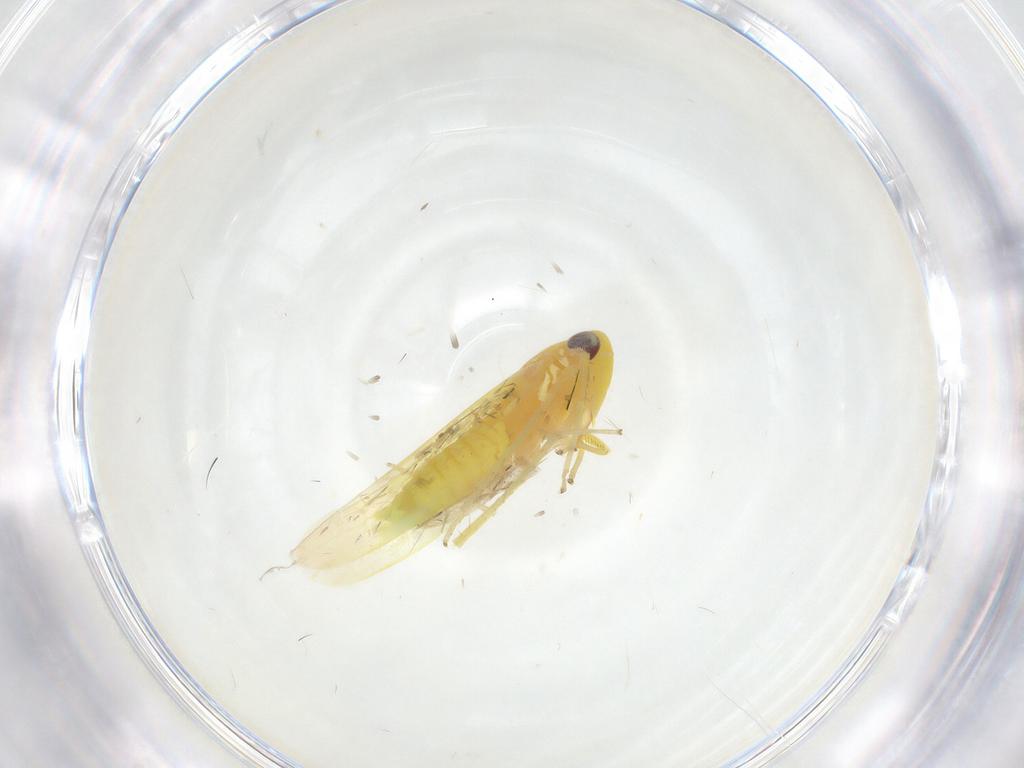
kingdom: Animalia
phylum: Arthropoda
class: Insecta
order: Hemiptera
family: Cicadellidae
